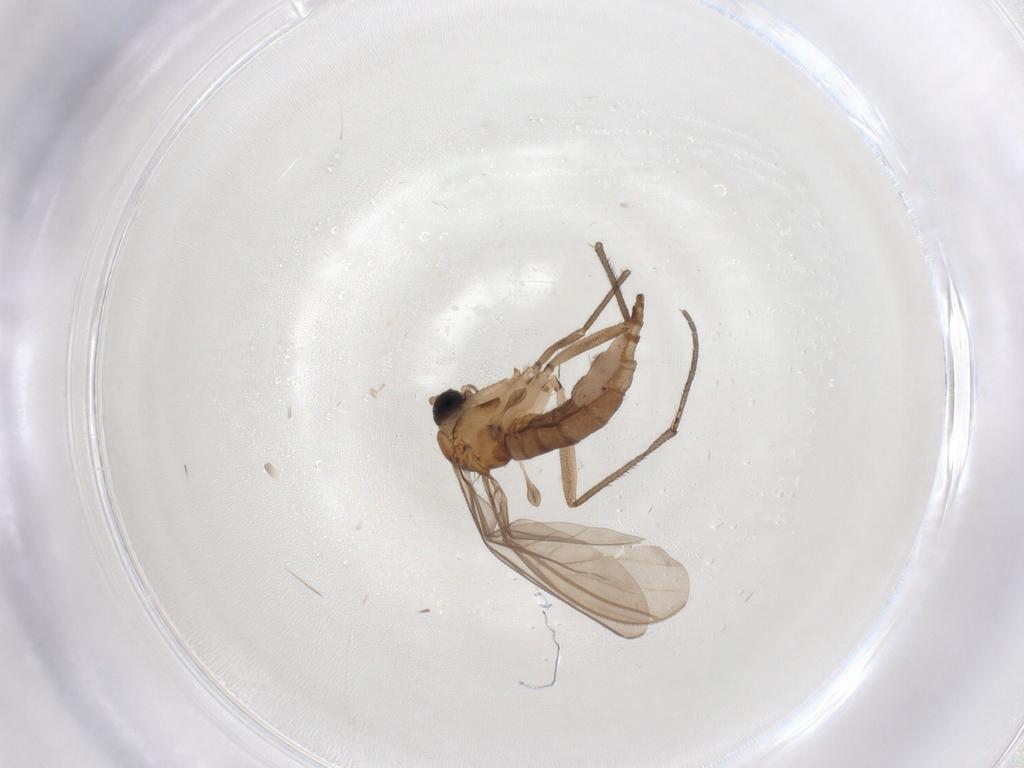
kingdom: Animalia
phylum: Arthropoda
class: Insecta
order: Diptera
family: Sciaridae
